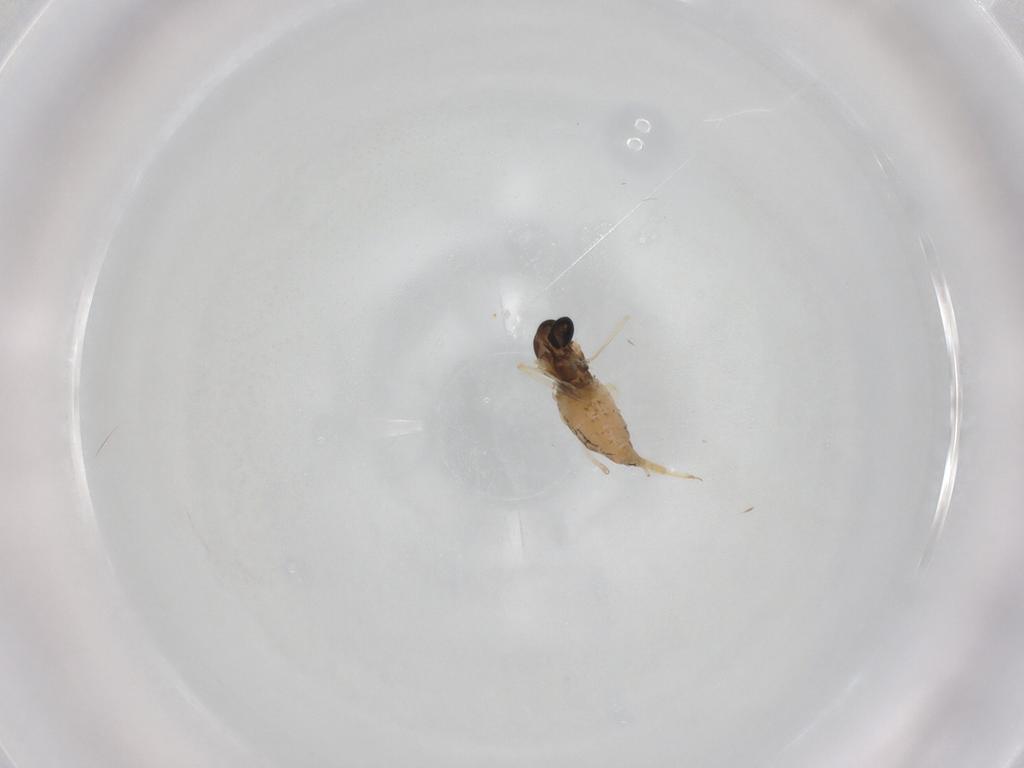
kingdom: Animalia
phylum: Arthropoda
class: Insecta
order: Diptera
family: Cecidomyiidae
